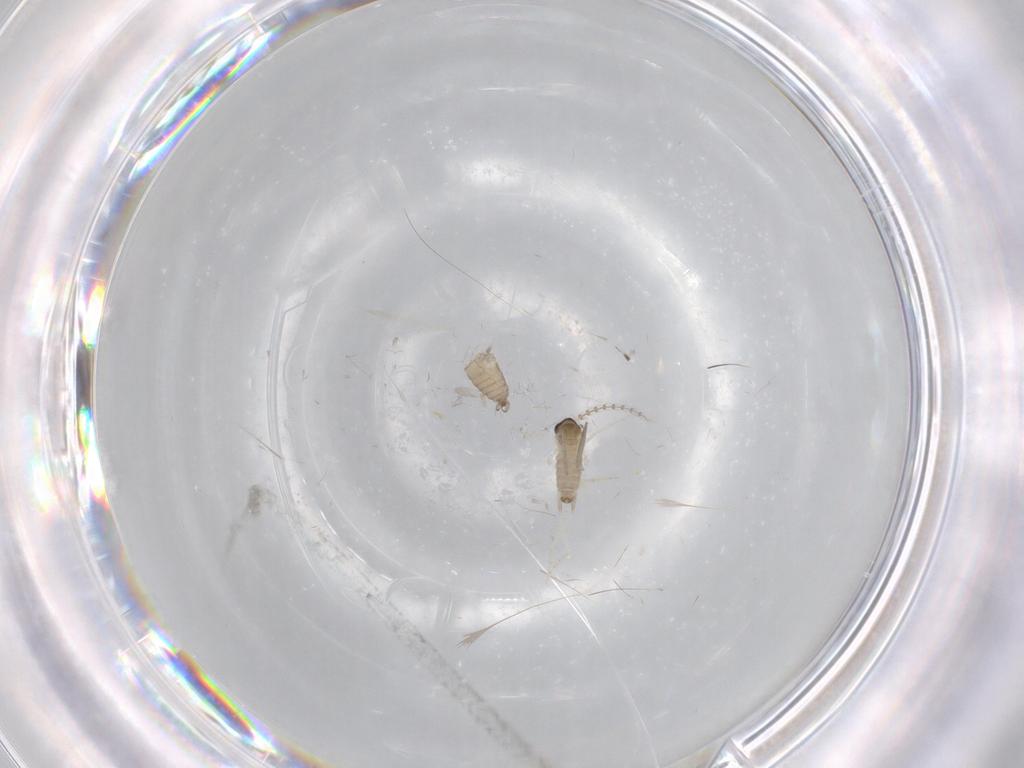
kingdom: Animalia
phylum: Arthropoda
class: Insecta
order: Diptera
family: Cecidomyiidae
